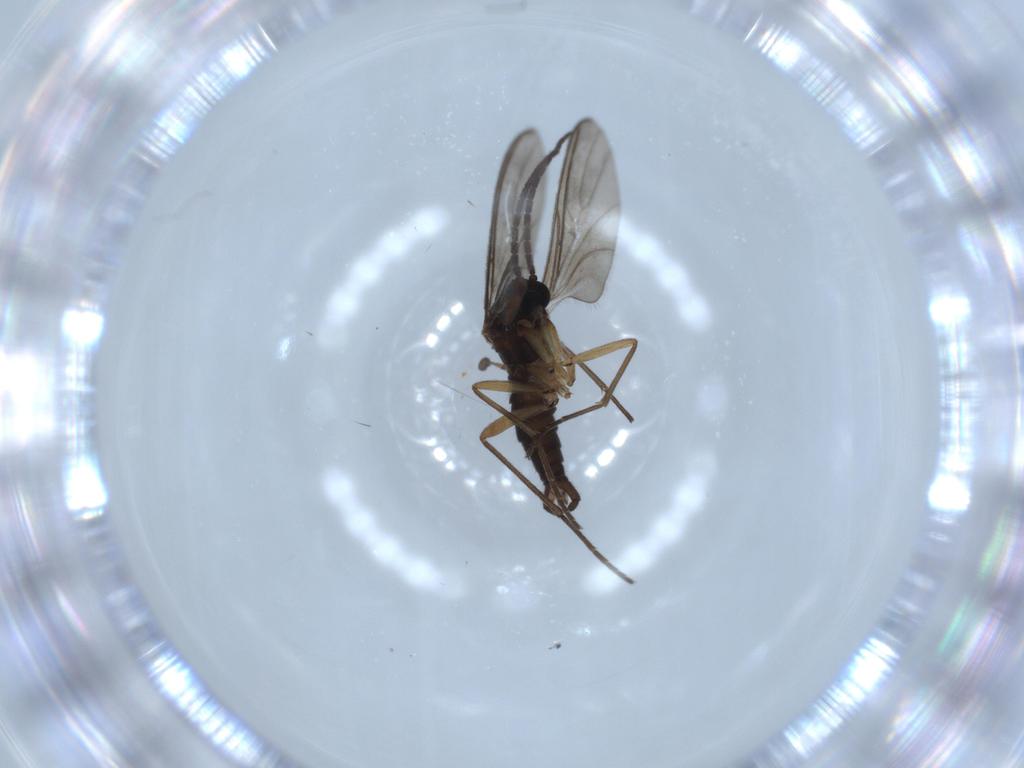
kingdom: Animalia
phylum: Arthropoda
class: Insecta
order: Diptera
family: Sciaridae
